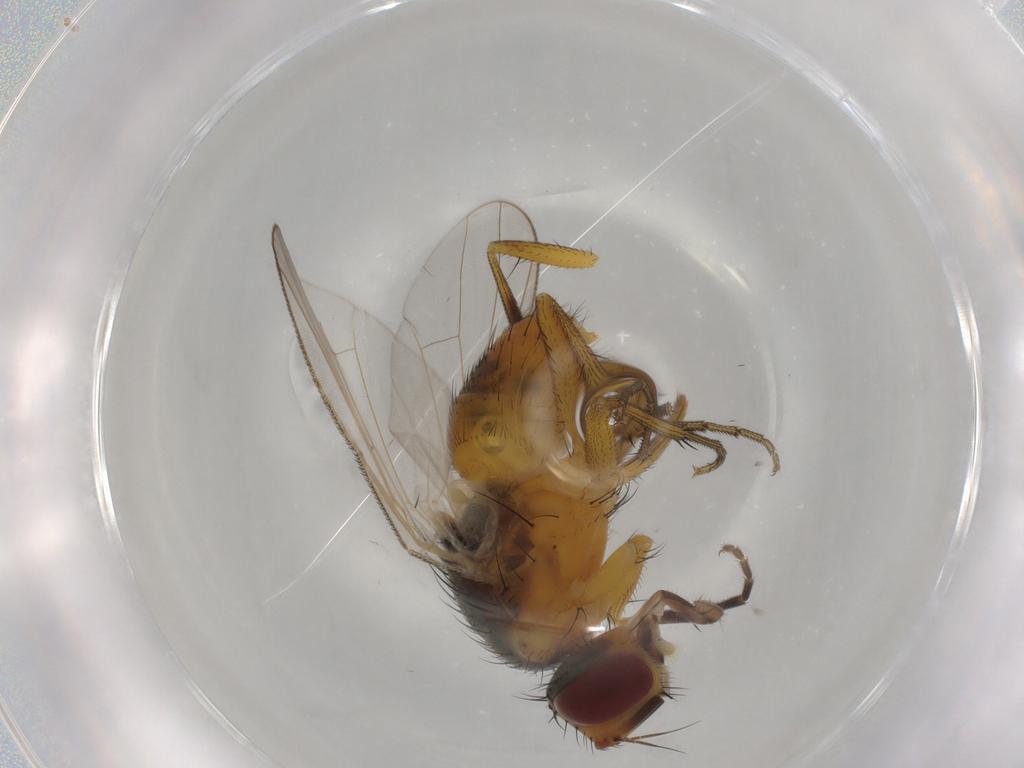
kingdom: Animalia
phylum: Arthropoda
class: Insecta
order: Diptera
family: Muscidae
